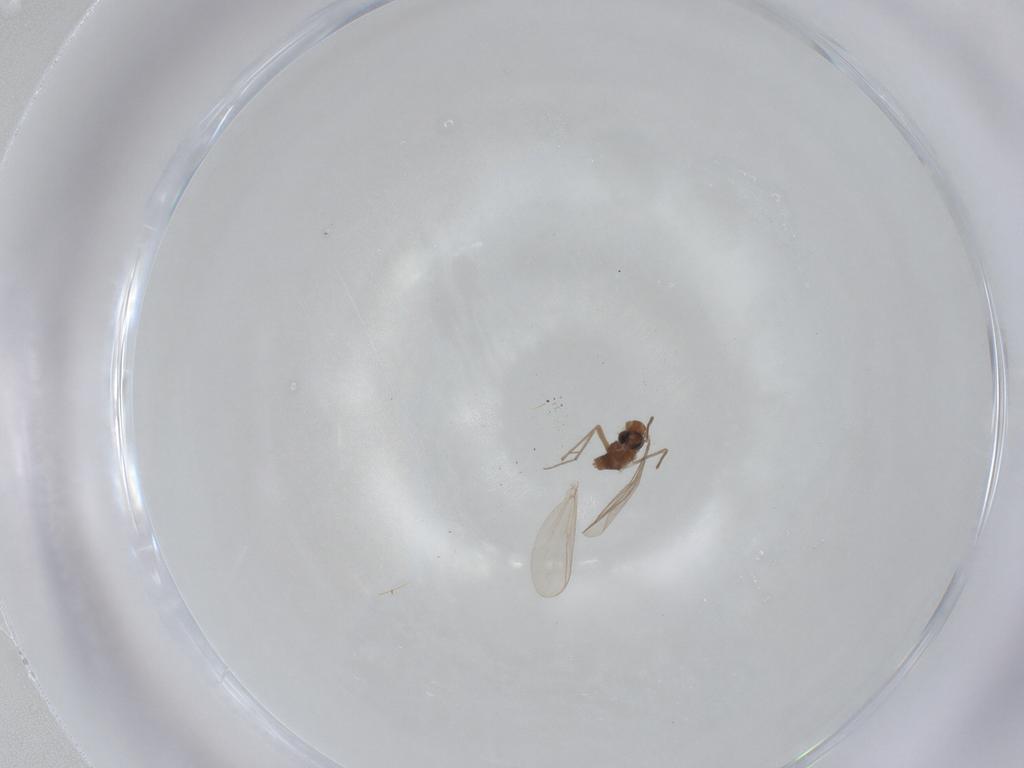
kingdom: Animalia
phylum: Arthropoda
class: Insecta
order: Diptera
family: Chironomidae
